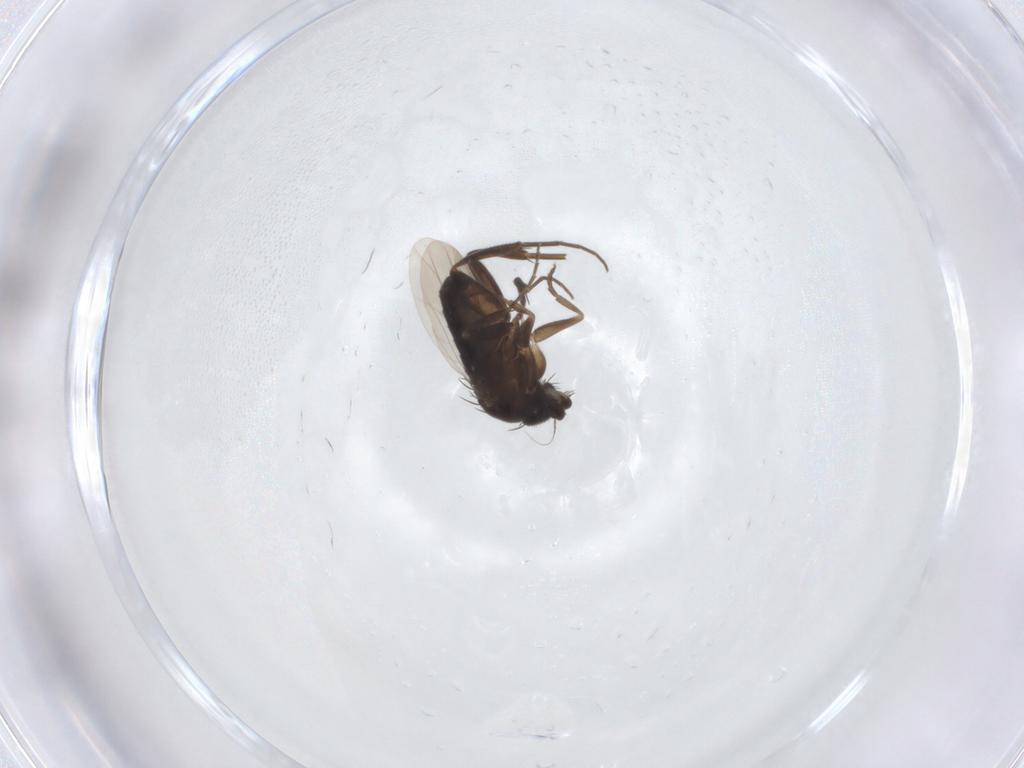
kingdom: Animalia
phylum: Arthropoda
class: Insecta
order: Diptera
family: Phoridae
